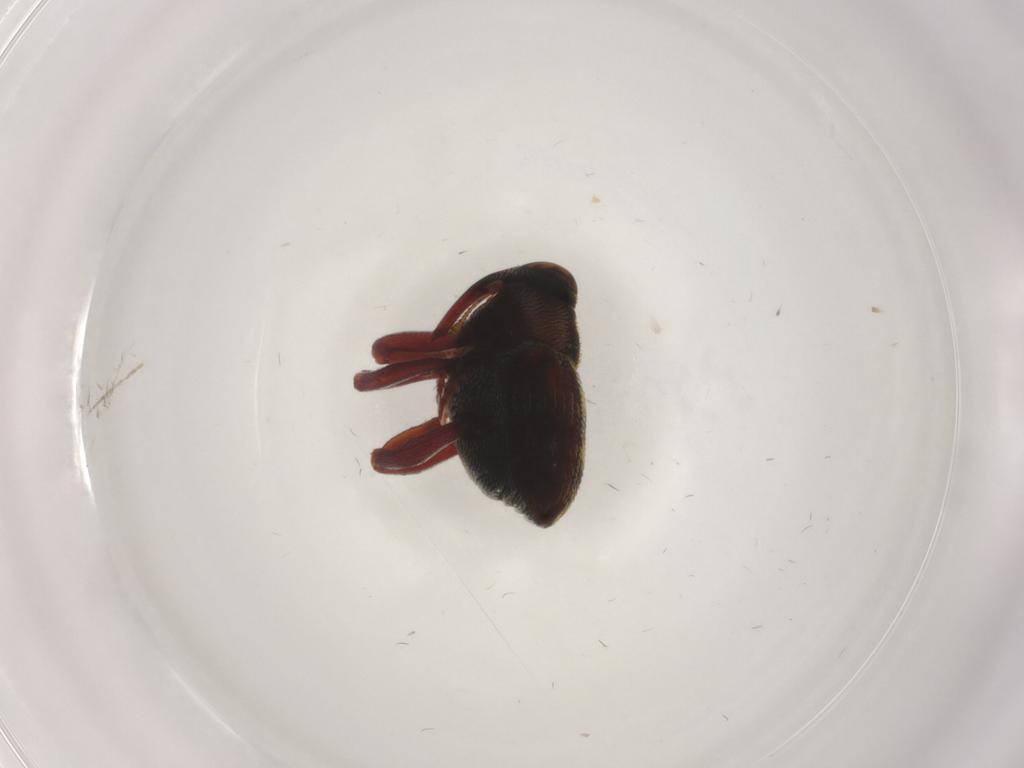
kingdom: Animalia
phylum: Arthropoda
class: Insecta
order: Coleoptera
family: Curculionidae
